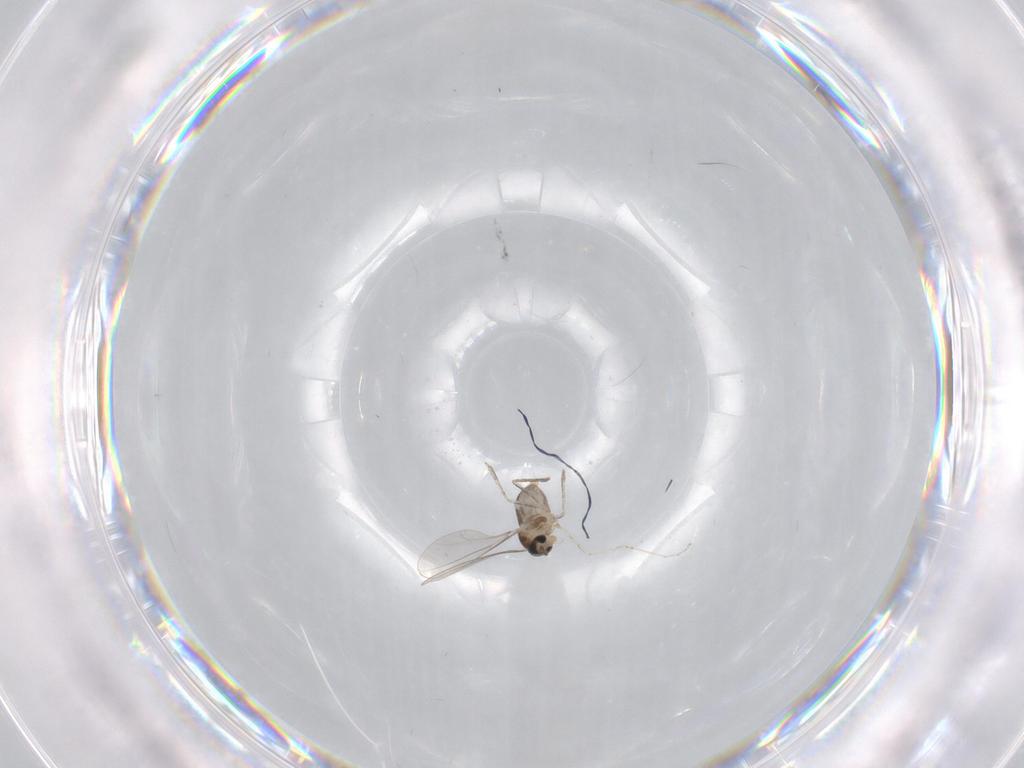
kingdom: Animalia
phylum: Arthropoda
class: Insecta
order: Diptera
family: Cecidomyiidae
